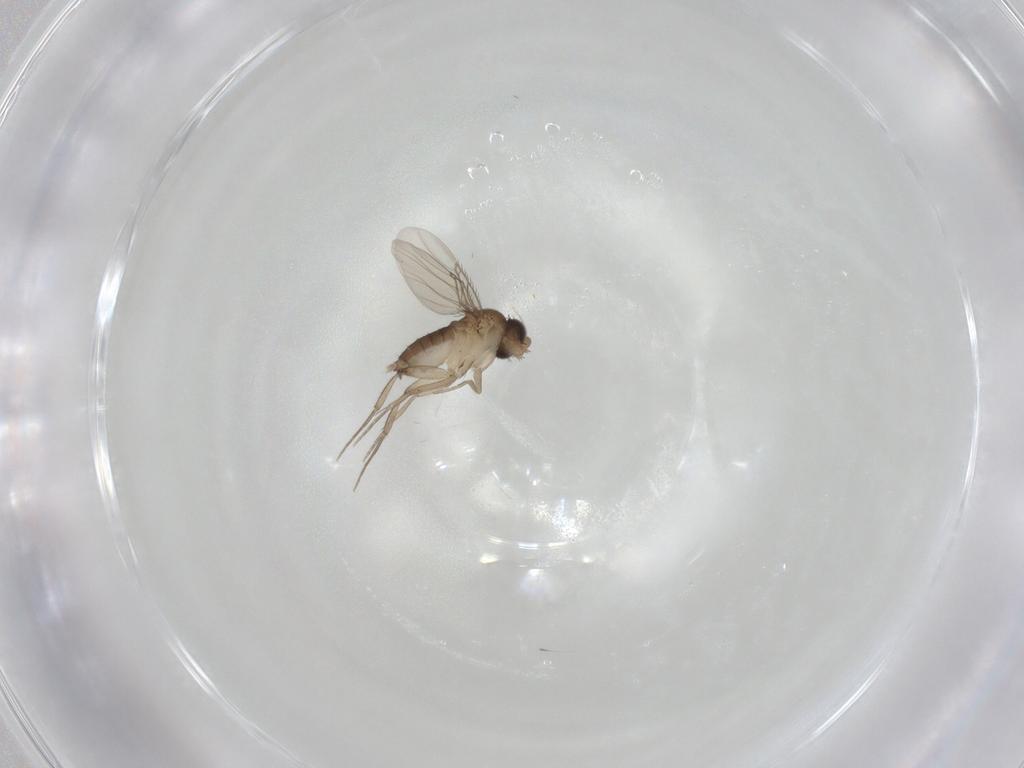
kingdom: Animalia
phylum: Arthropoda
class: Insecta
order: Diptera
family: Phoridae
